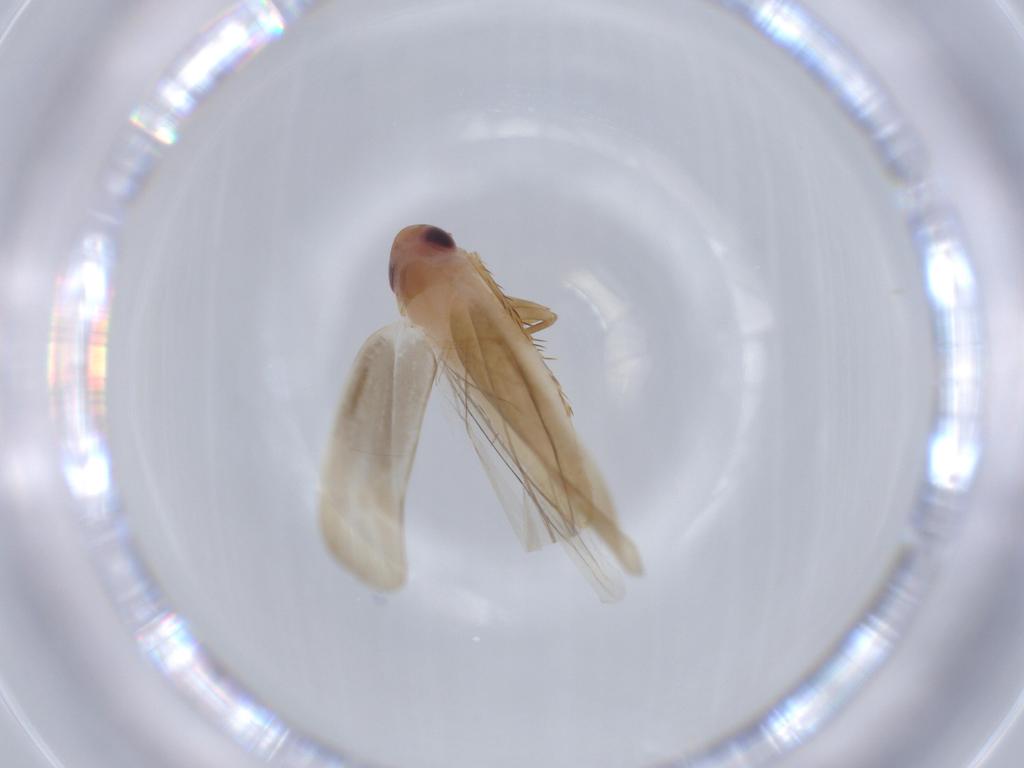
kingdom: Animalia
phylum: Arthropoda
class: Insecta
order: Hemiptera
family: Cicadellidae
